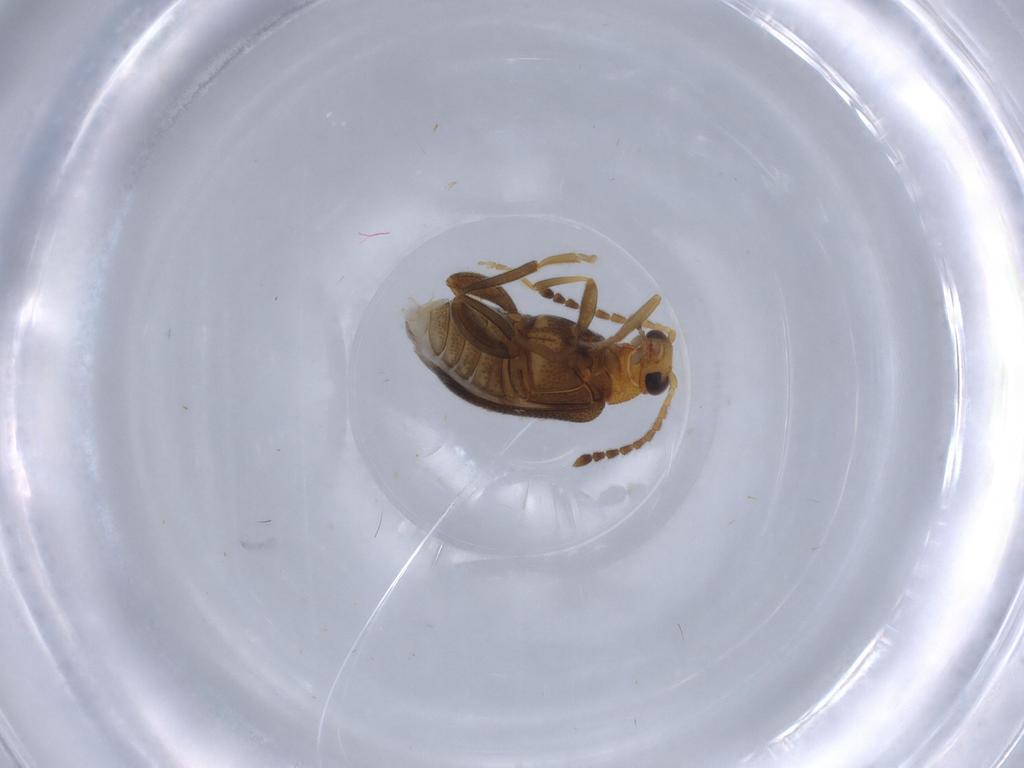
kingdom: Animalia
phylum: Arthropoda
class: Insecta
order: Coleoptera
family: Aderidae
